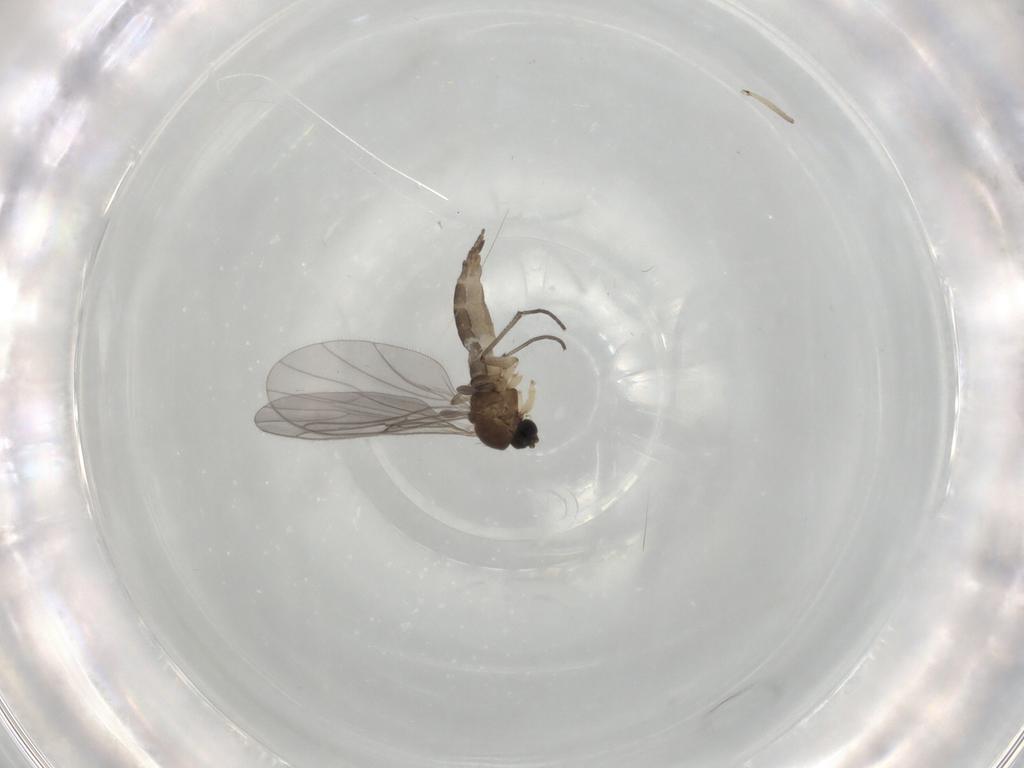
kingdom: Animalia
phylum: Arthropoda
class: Insecta
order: Diptera
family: Sciaridae
